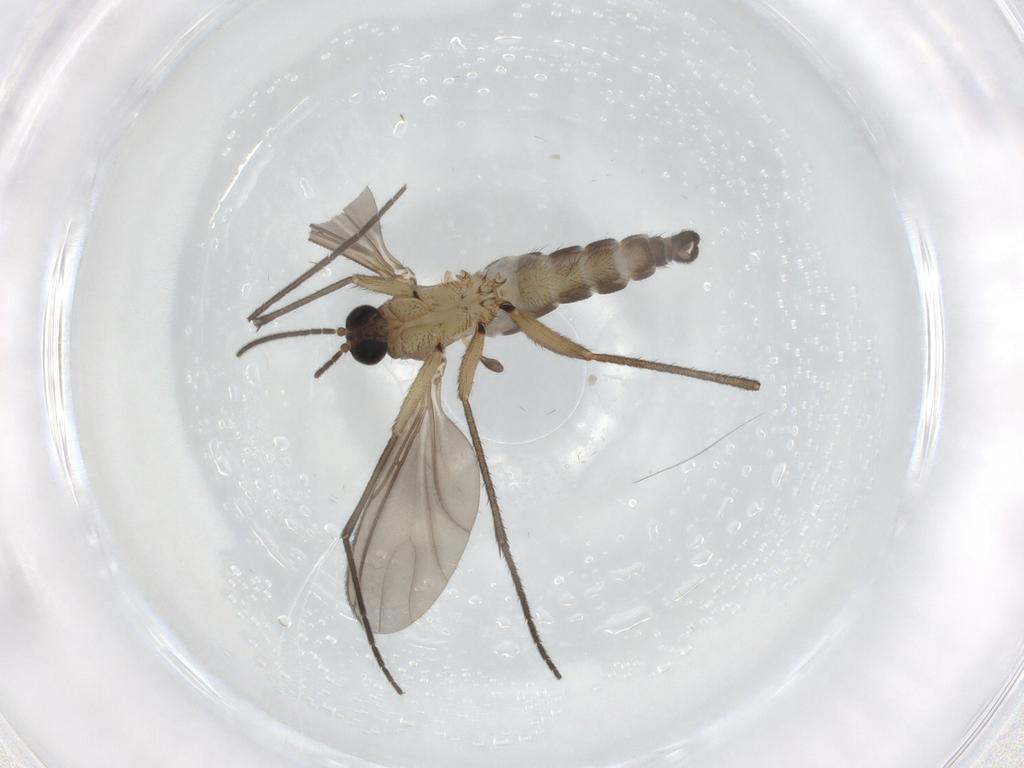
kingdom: Animalia
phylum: Arthropoda
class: Insecta
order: Diptera
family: Sciaridae
